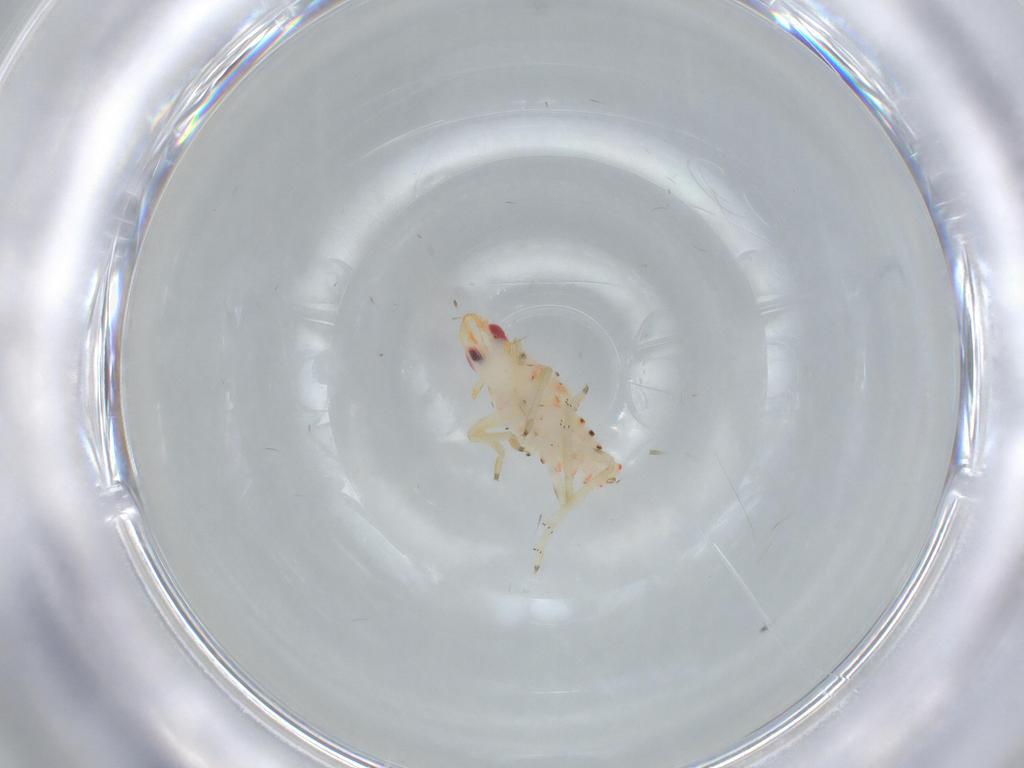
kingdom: Animalia
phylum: Arthropoda
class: Insecta
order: Hemiptera
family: Tropiduchidae
